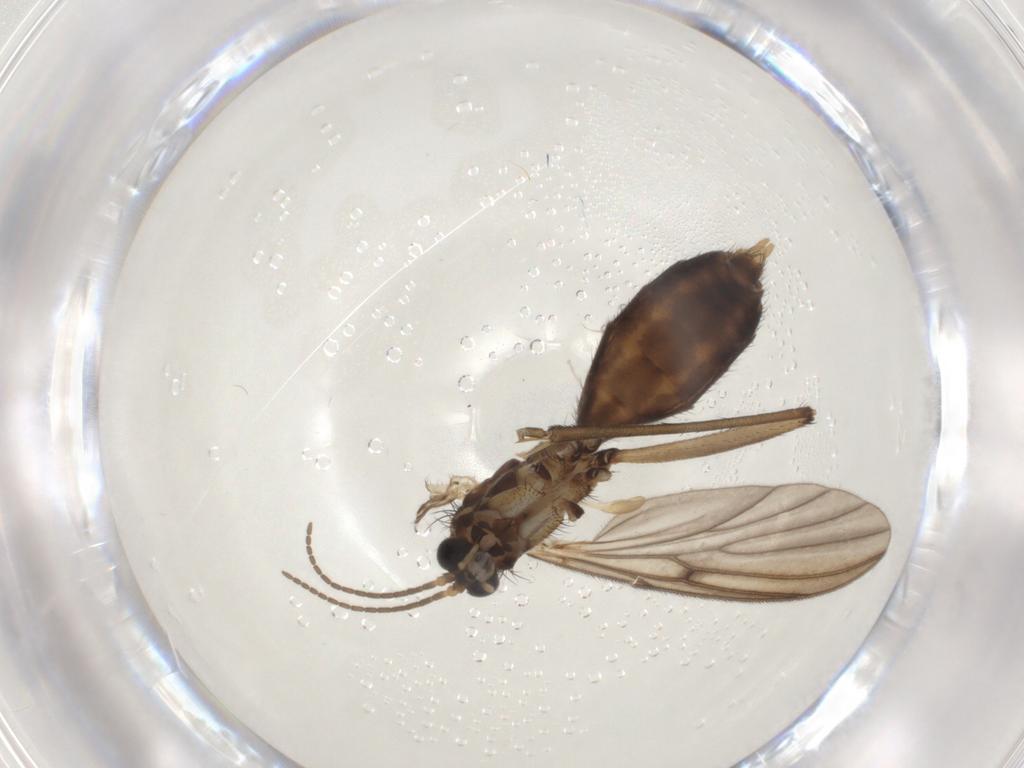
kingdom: Animalia
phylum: Arthropoda
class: Insecta
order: Diptera
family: Mycetophilidae
